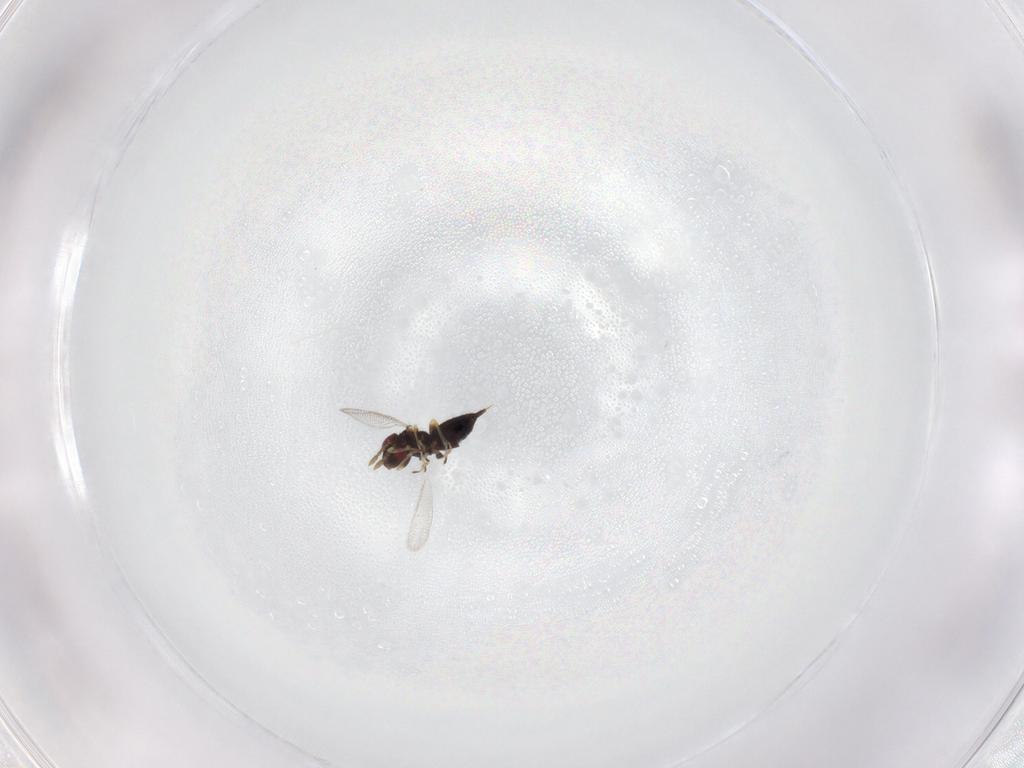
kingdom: Animalia
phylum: Arthropoda
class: Insecta
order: Hymenoptera
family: Eulophidae
